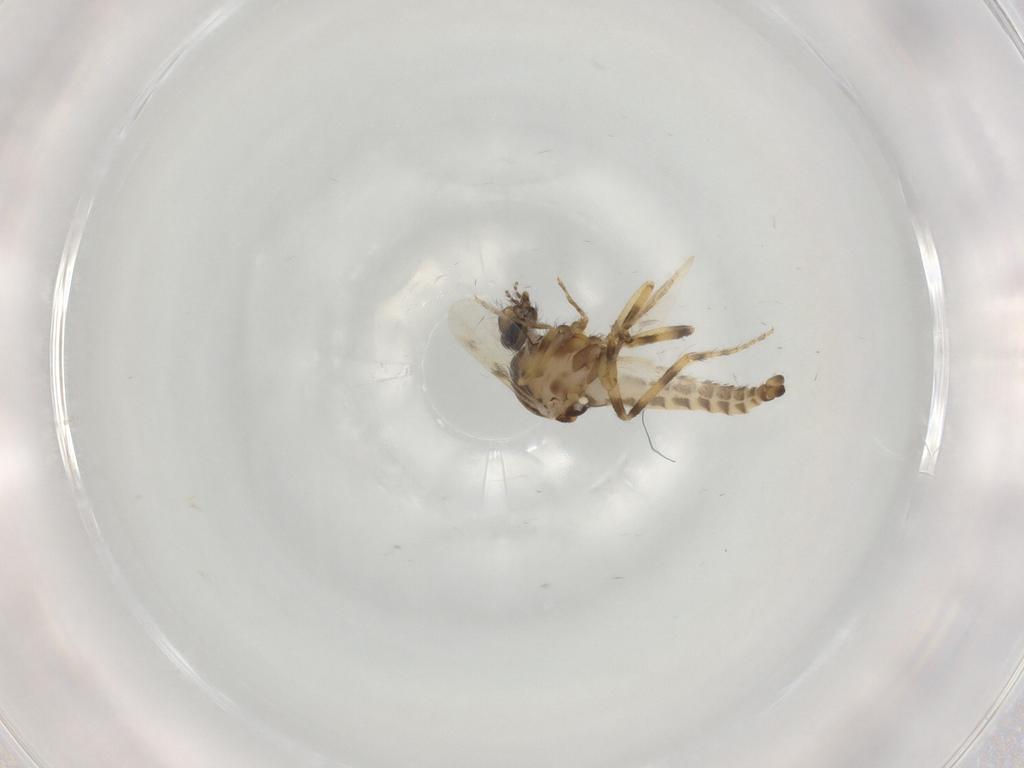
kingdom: Animalia
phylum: Arthropoda
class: Insecta
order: Diptera
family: Ceratopogonidae
